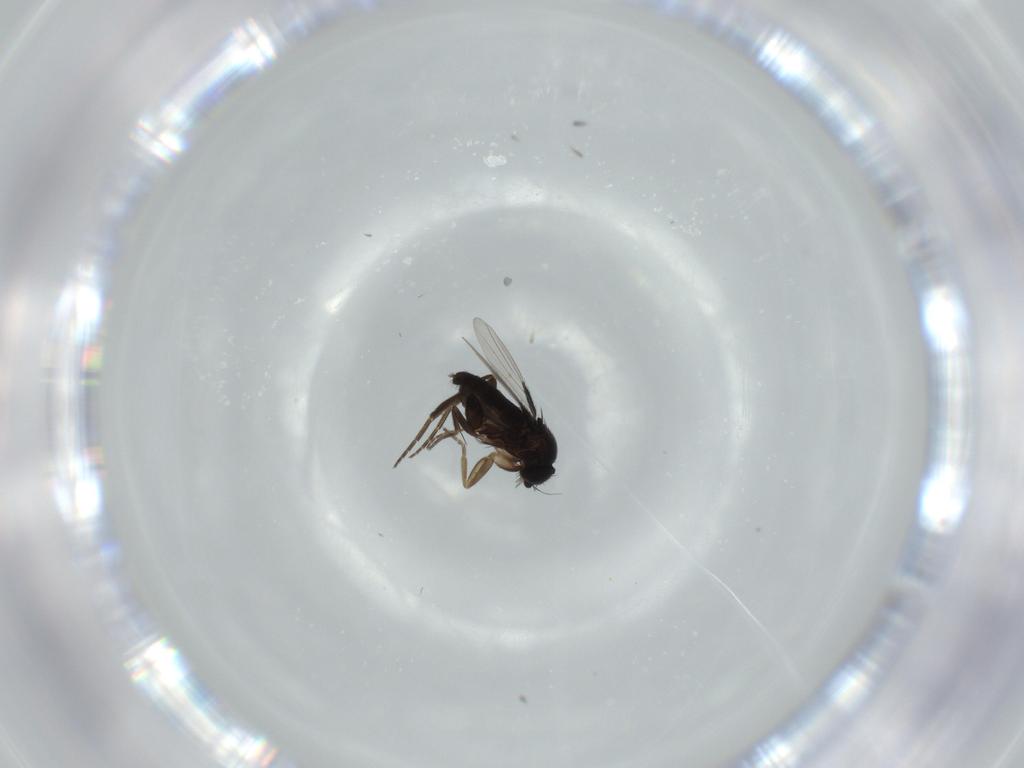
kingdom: Animalia
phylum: Arthropoda
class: Insecta
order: Diptera
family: Phoridae
